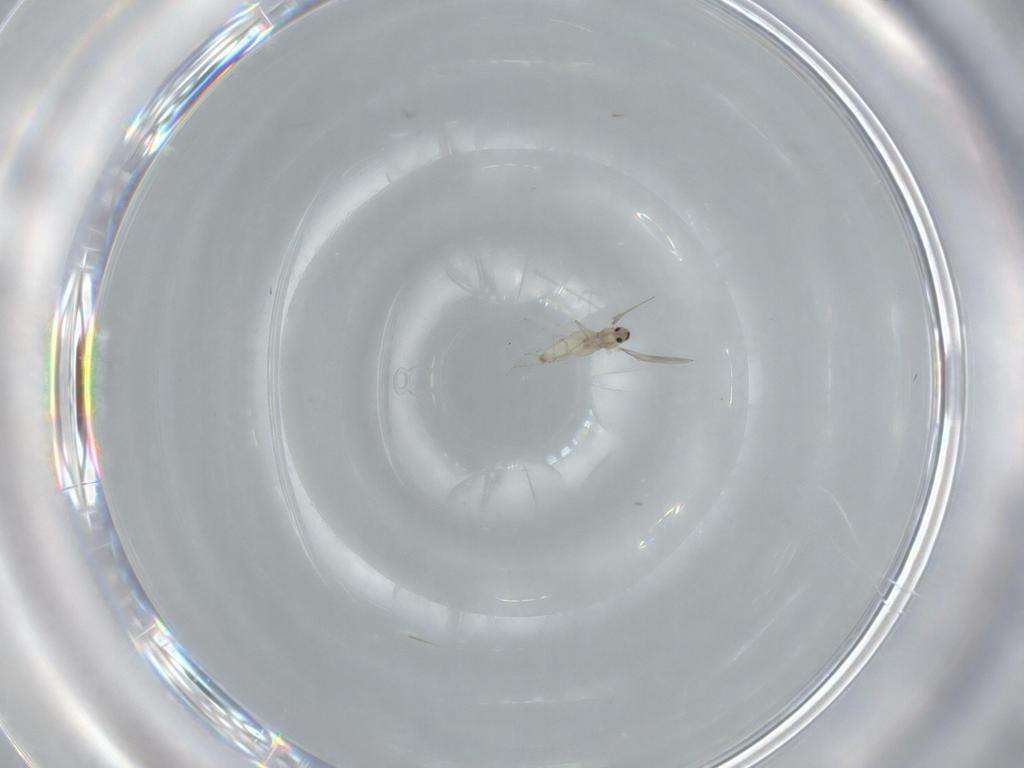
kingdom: Animalia
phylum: Arthropoda
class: Insecta
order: Diptera
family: Cecidomyiidae
